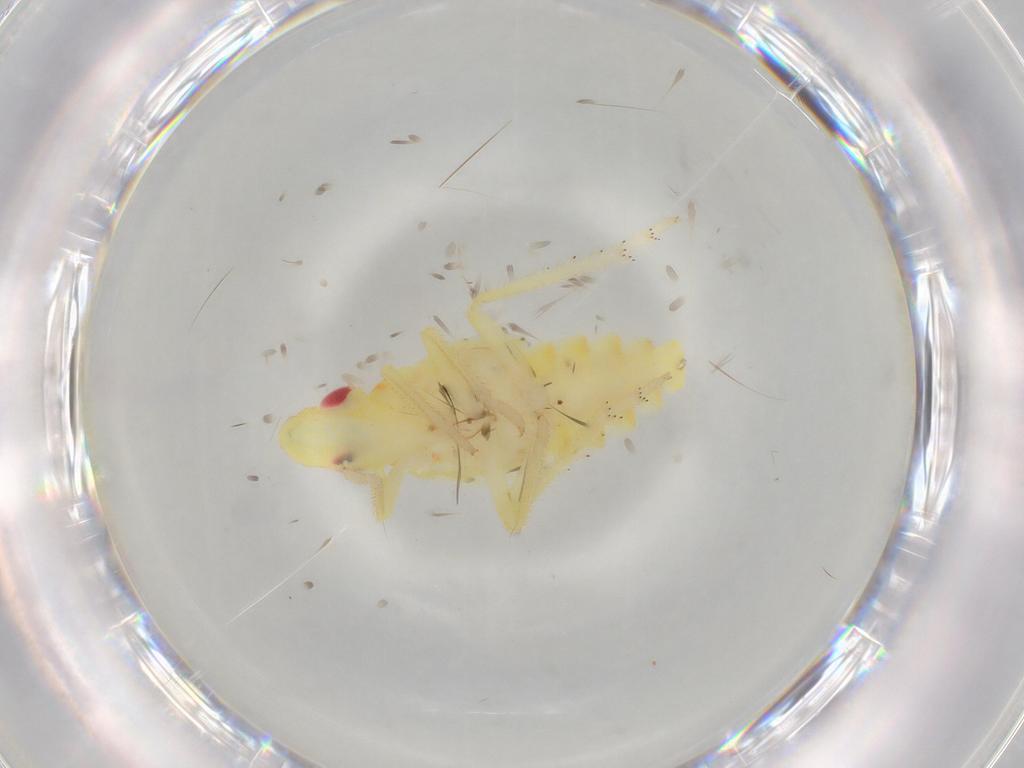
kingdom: Animalia
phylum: Arthropoda
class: Insecta
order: Hemiptera
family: Tropiduchidae
